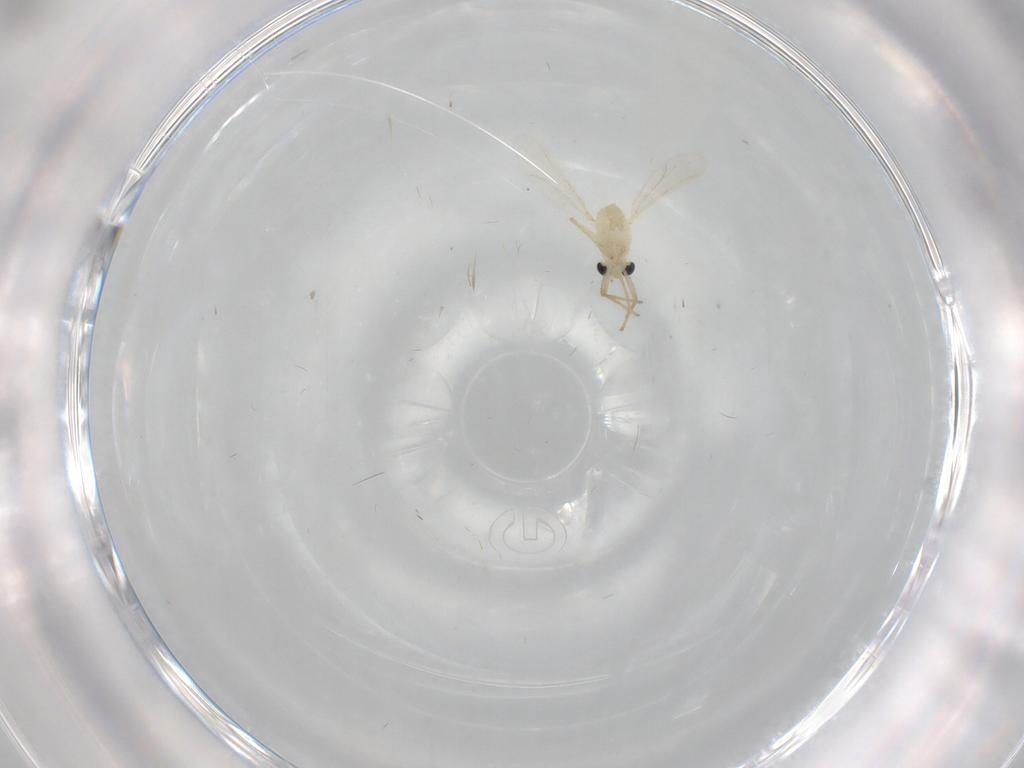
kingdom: Animalia
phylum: Arthropoda
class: Insecta
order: Diptera
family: Chironomidae
